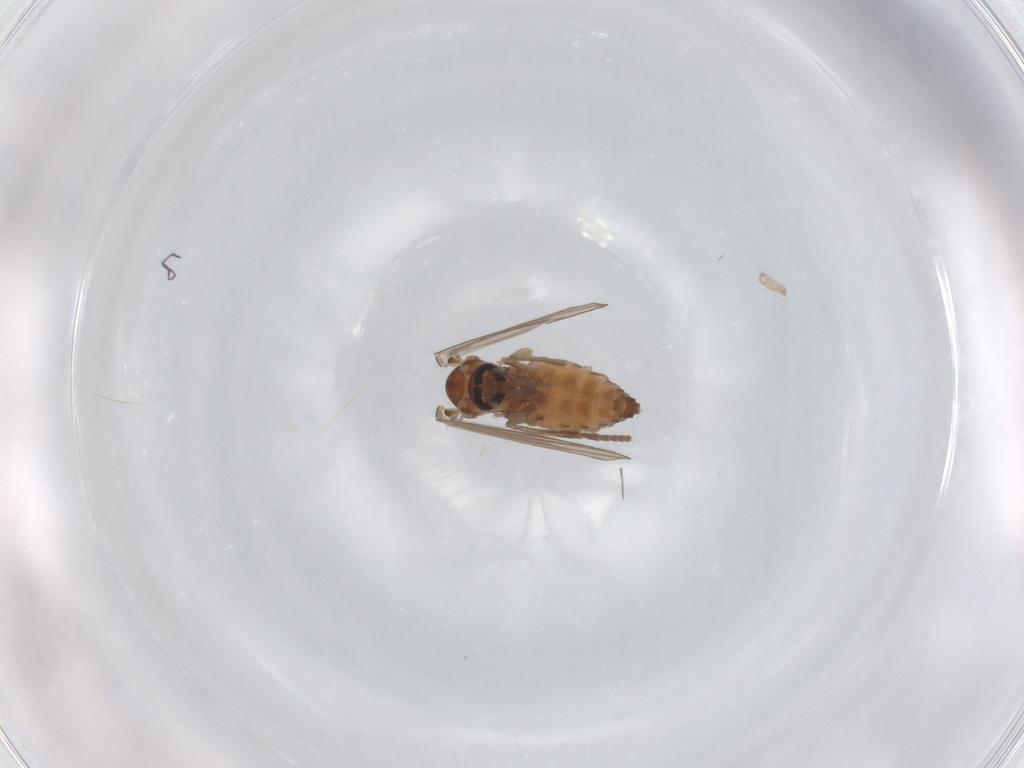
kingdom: Animalia
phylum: Arthropoda
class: Insecta
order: Diptera
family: Psychodidae
